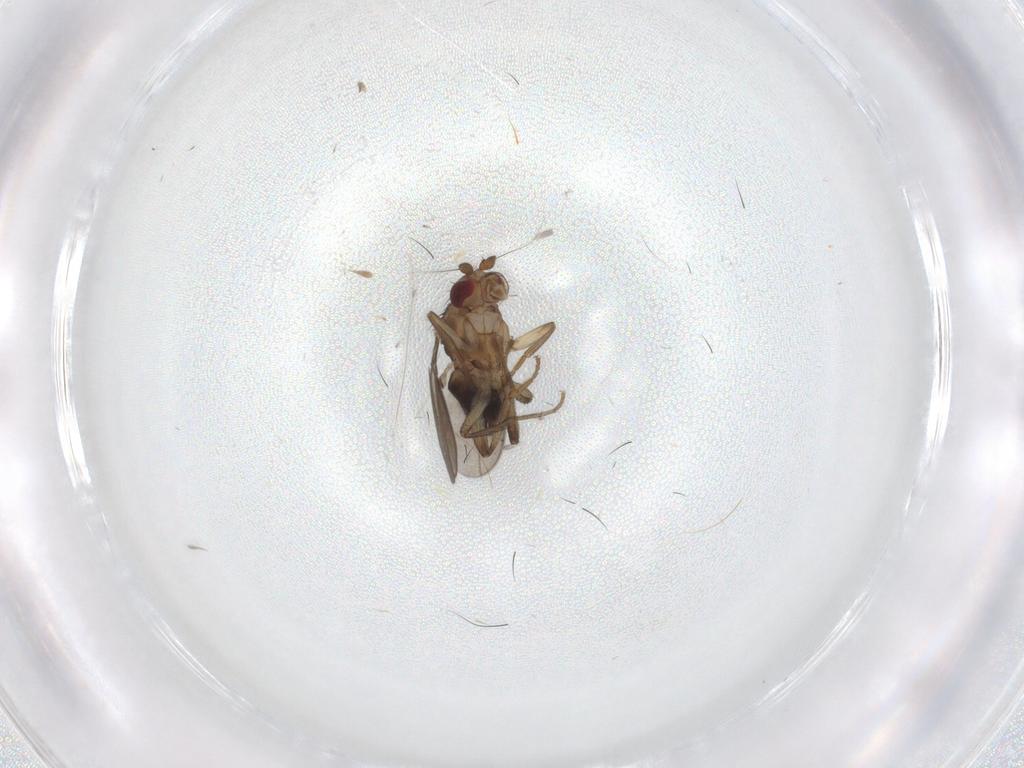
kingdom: Animalia
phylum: Arthropoda
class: Insecta
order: Diptera
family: Sphaeroceridae
